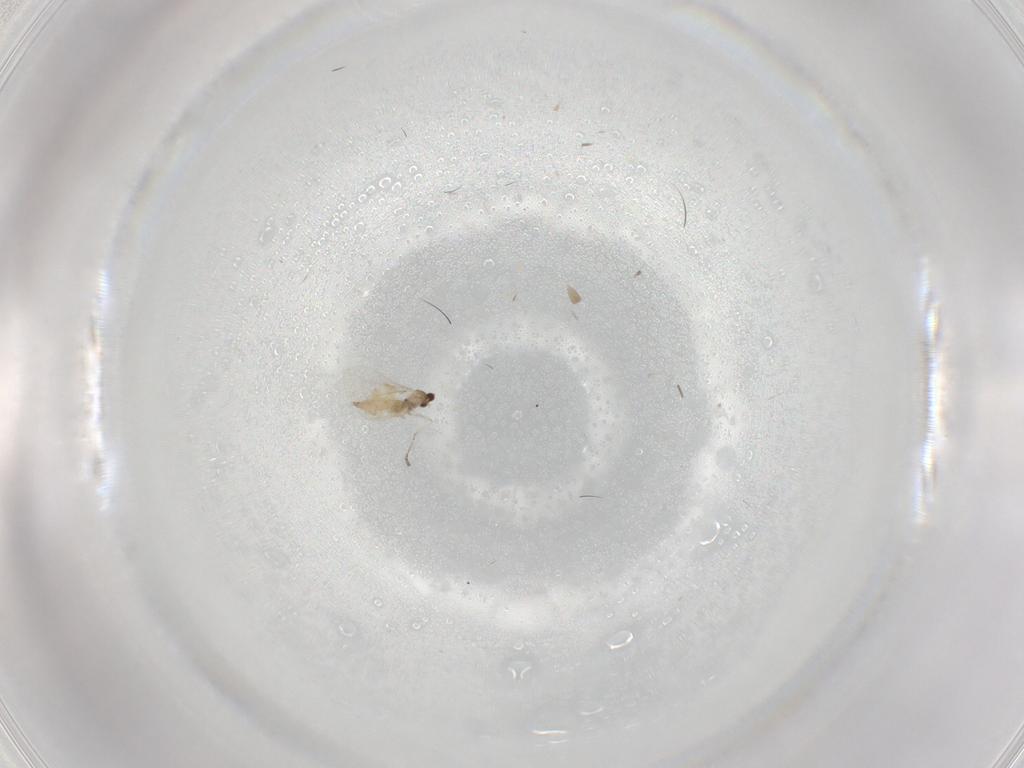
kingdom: Animalia
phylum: Arthropoda
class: Insecta
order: Diptera
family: Cecidomyiidae
